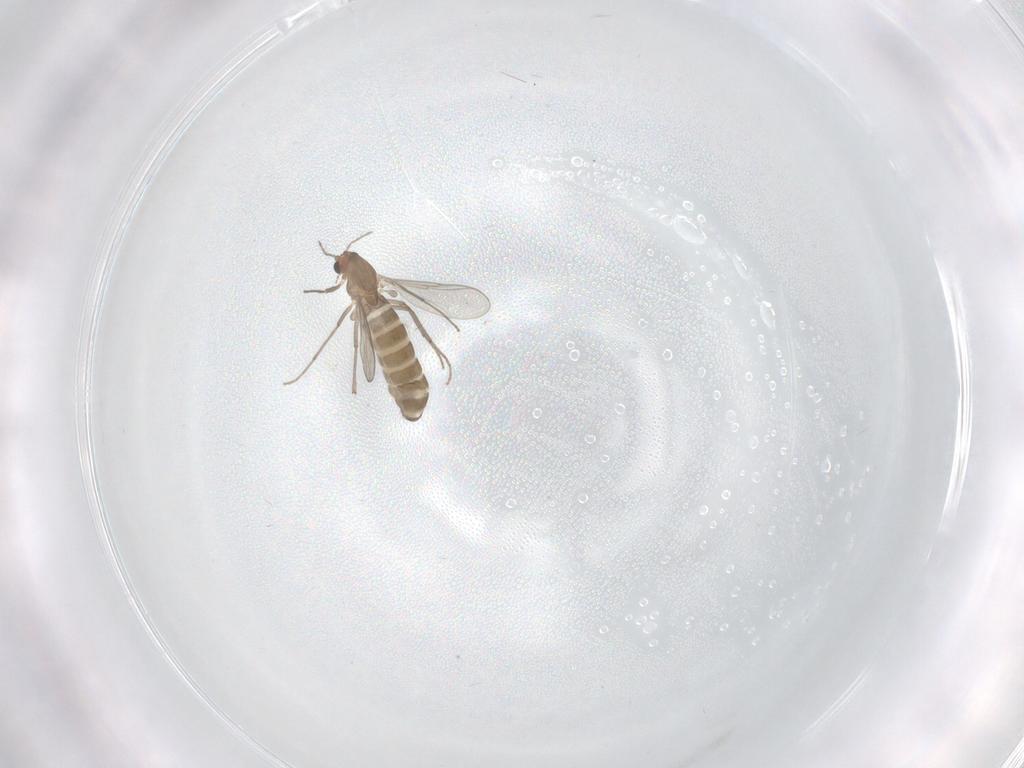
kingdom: Animalia
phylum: Arthropoda
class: Insecta
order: Diptera
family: Chironomidae
